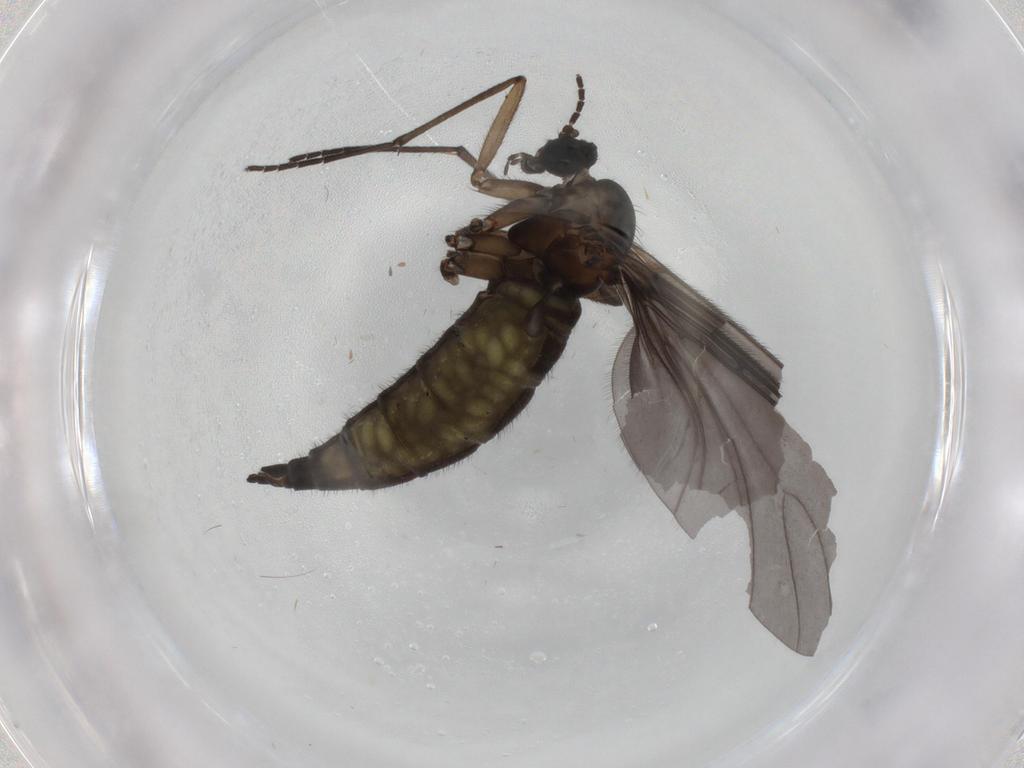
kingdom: Animalia
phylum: Arthropoda
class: Insecta
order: Diptera
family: Sciaridae
